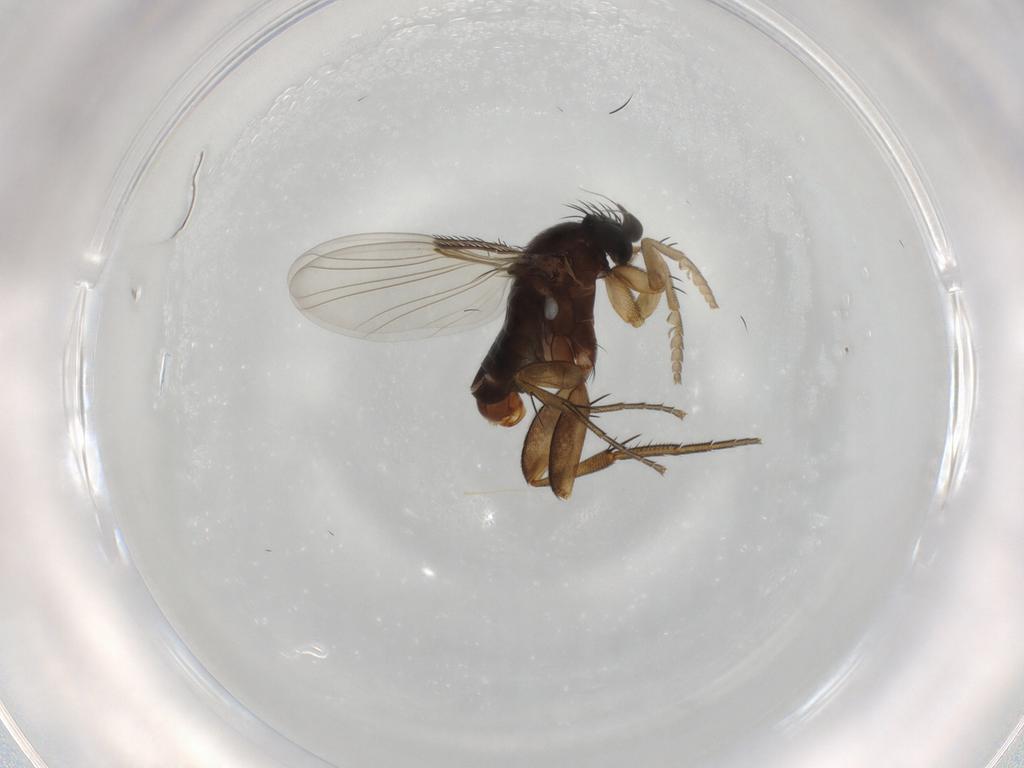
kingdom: Animalia
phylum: Arthropoda
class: Insecta
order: Diptera
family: Phoridae
